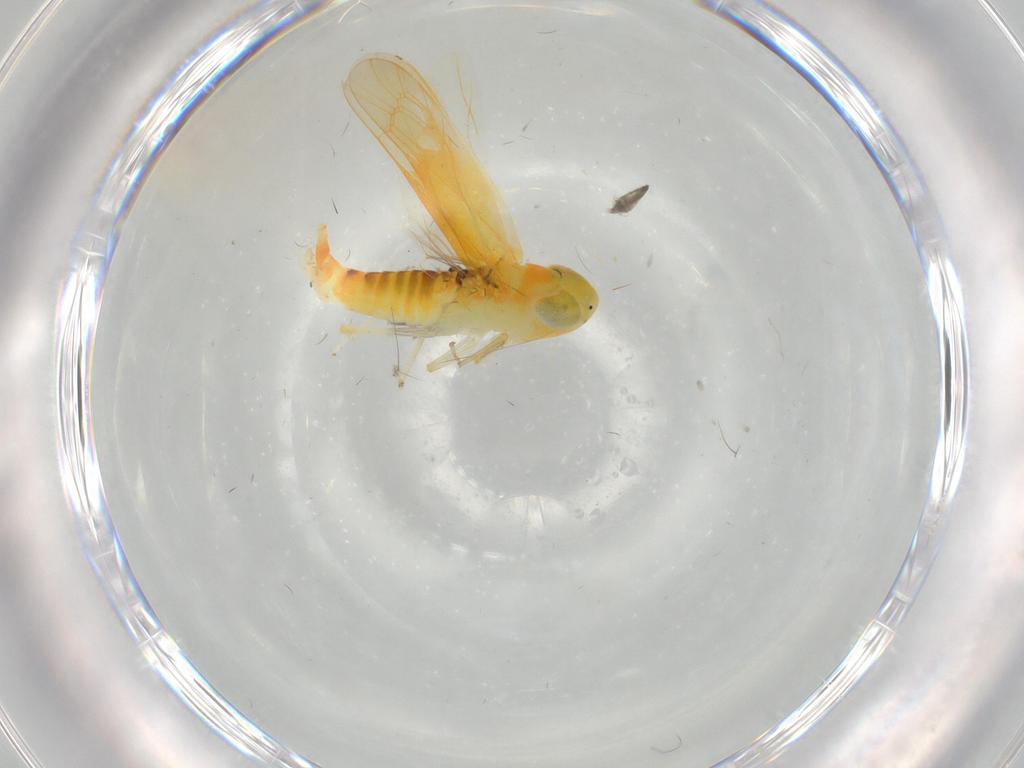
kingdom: Animalia
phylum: Arthropoda
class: Insecta
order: Hymenoptera
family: Bethylidae
